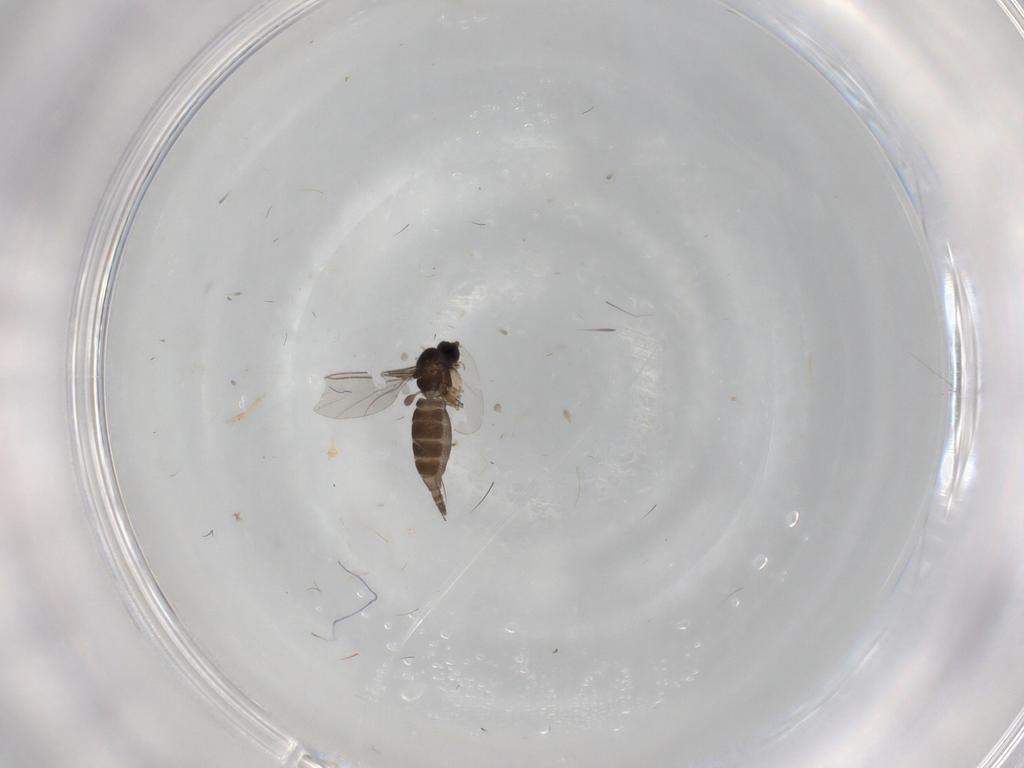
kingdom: Animalia
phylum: Arthropoda
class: Insecta
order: Diptera
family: Sciaridae
